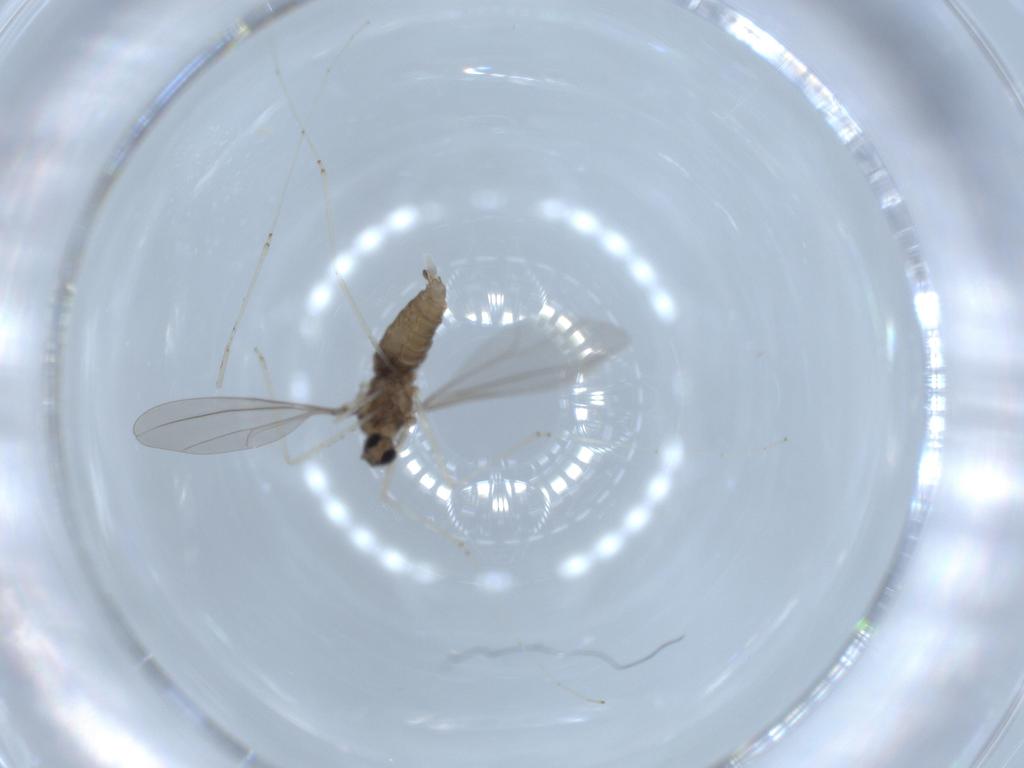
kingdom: Animalia
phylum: Arthropoda
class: Insecta
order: Diptera
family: Cecidomyiidae
